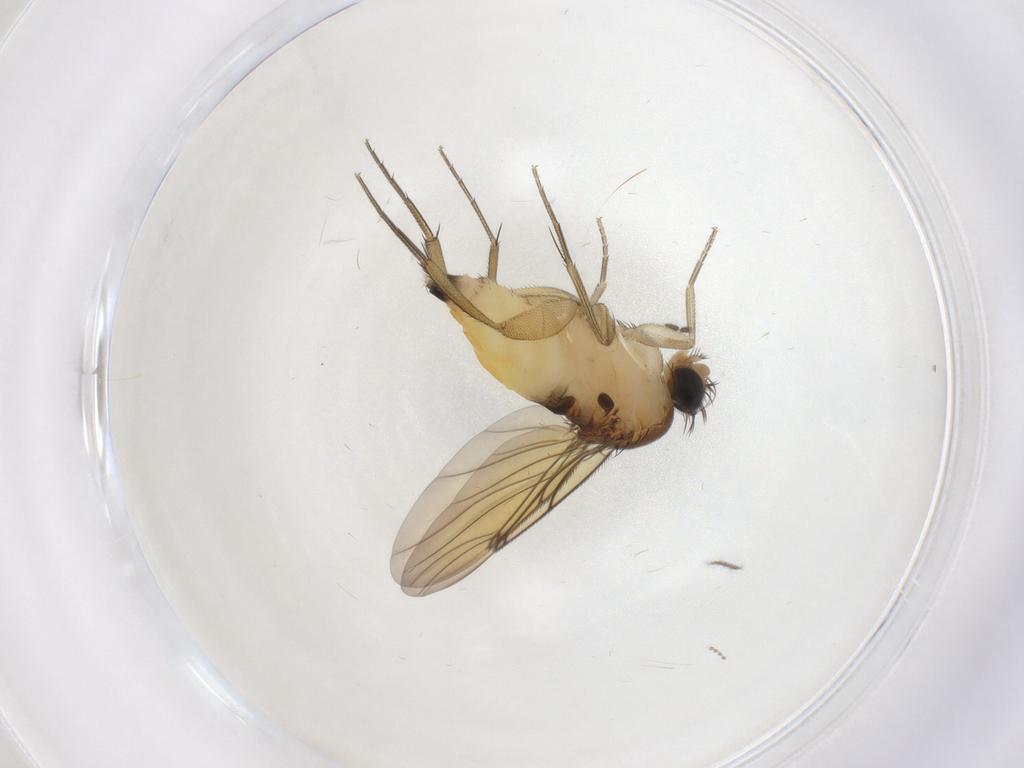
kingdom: Animalia
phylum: Arthropoda
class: Insecta
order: Diptera
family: Sciaridae
